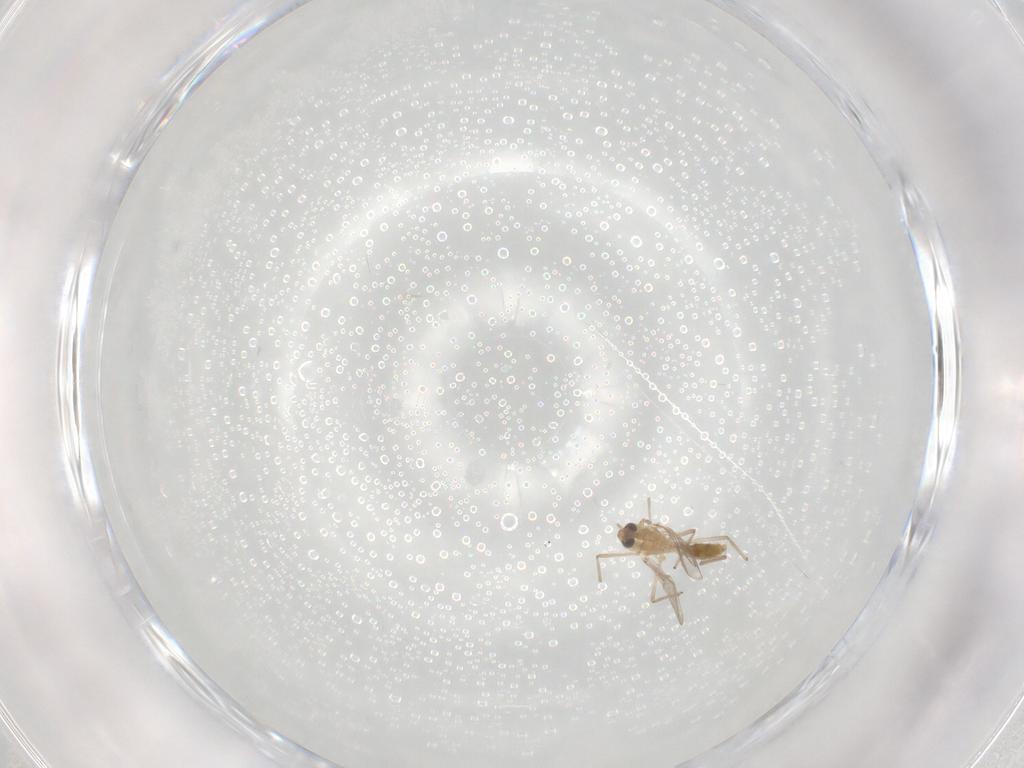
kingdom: Animalia
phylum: Arthropoda
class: Insecta
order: Diptera
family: Chironomidae
